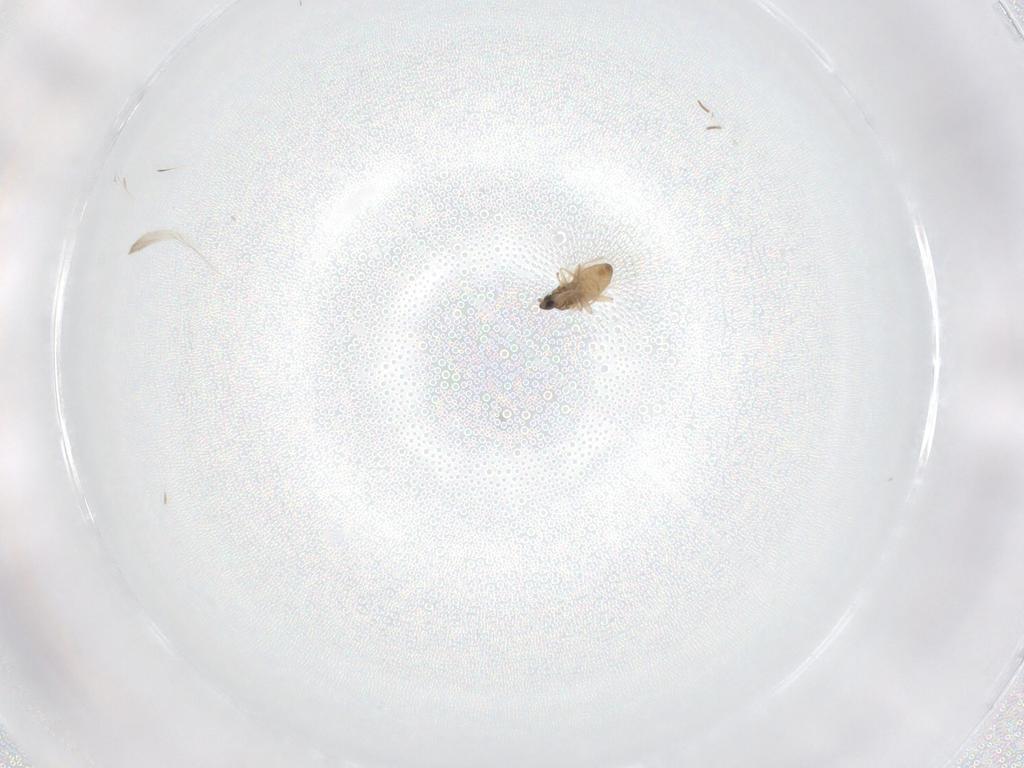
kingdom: Animalia
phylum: Arthropoda
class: Insecta
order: Diptera
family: Cecidomyiidae
